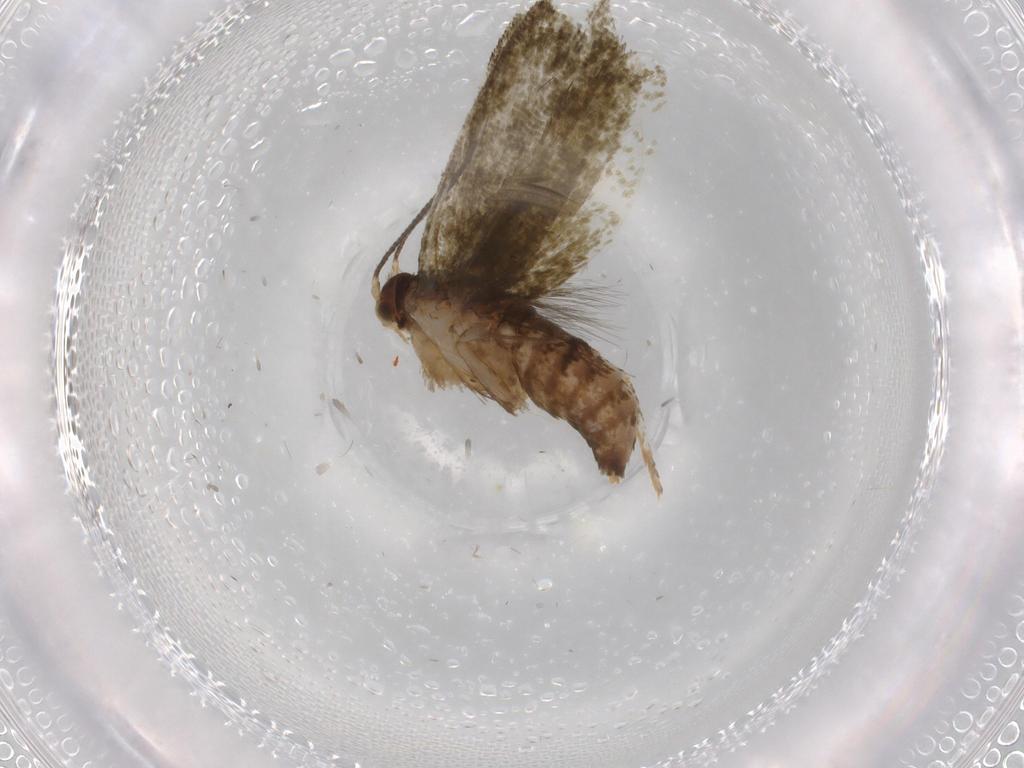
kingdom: Animalia
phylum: Arthropoda
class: Insecta
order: Lepidoptera
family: Tineidae
